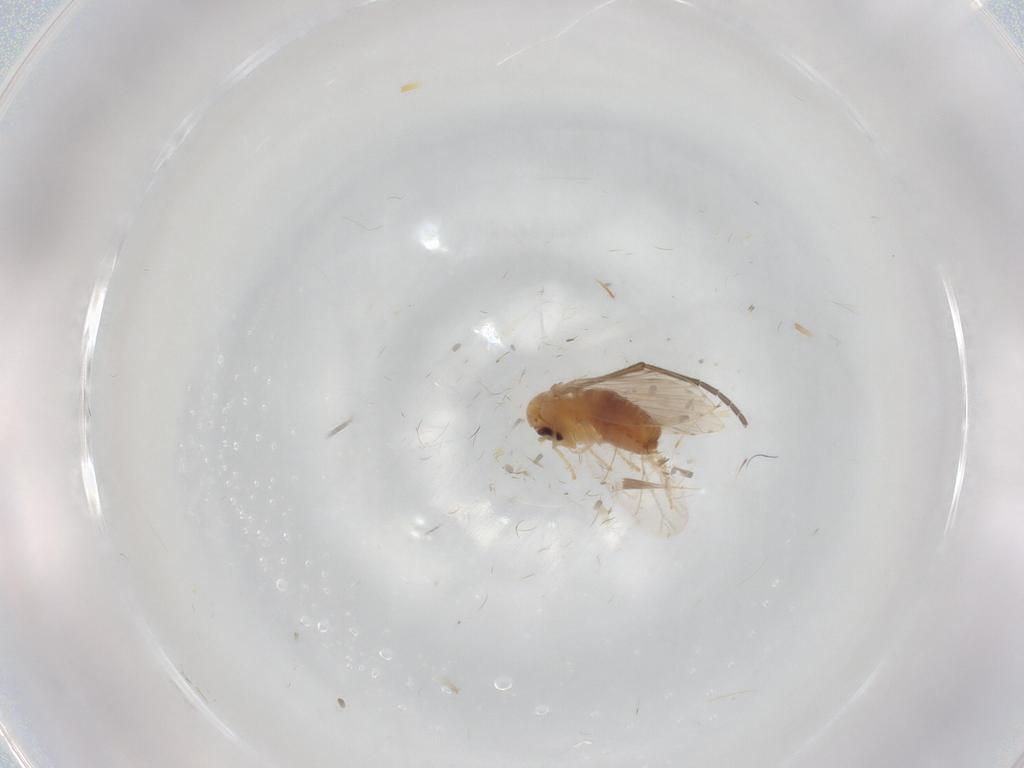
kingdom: Animalia
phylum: Arthropoda
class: Insecta
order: Diptera
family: Psychodidae
